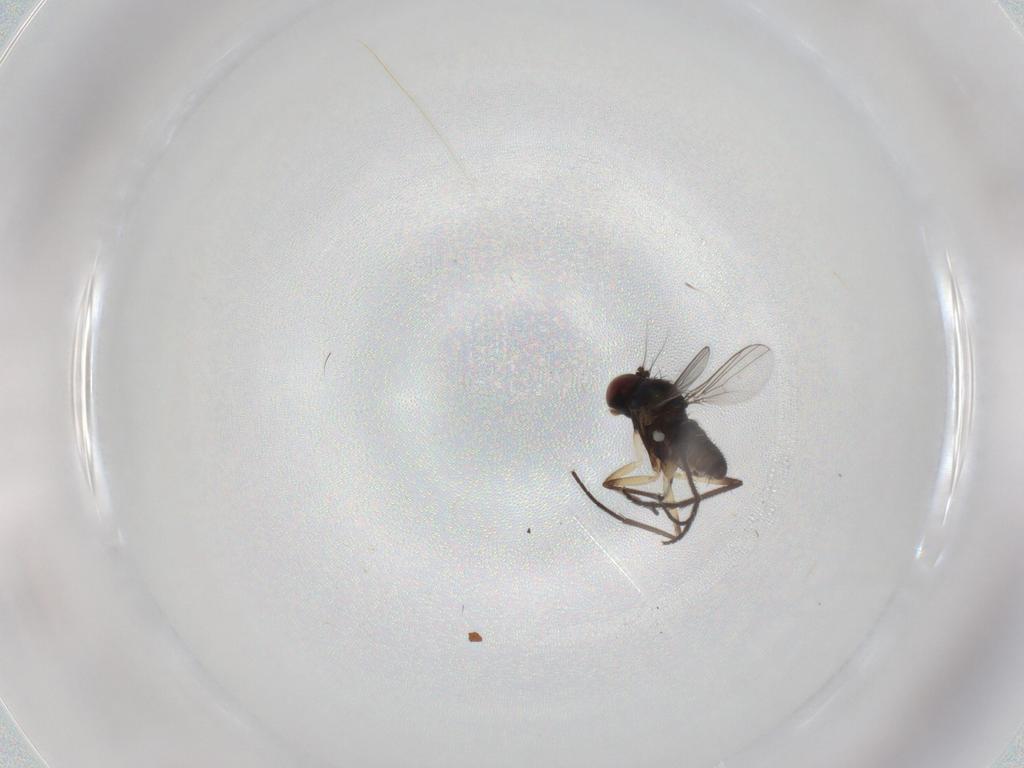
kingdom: Animalia
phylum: Arthropoda
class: Insecta
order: Diptera
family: Dolichopodidae
